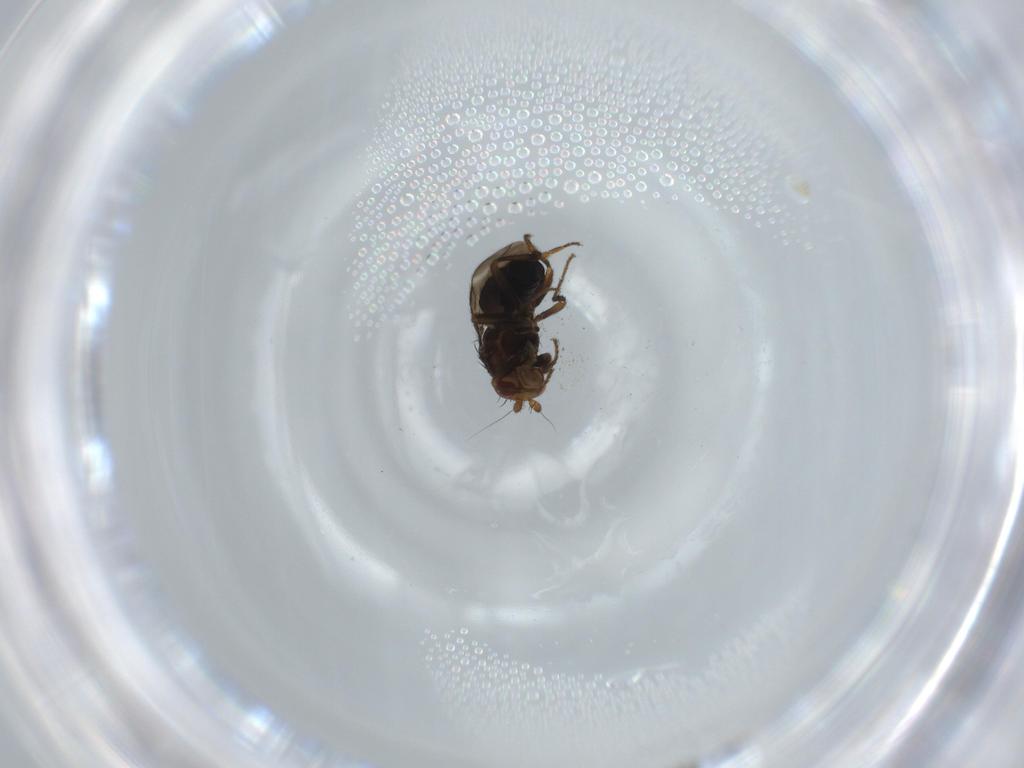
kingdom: Animalia
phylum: Arthropoda
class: Insecta
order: Diptera
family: Sphaeroceridae
